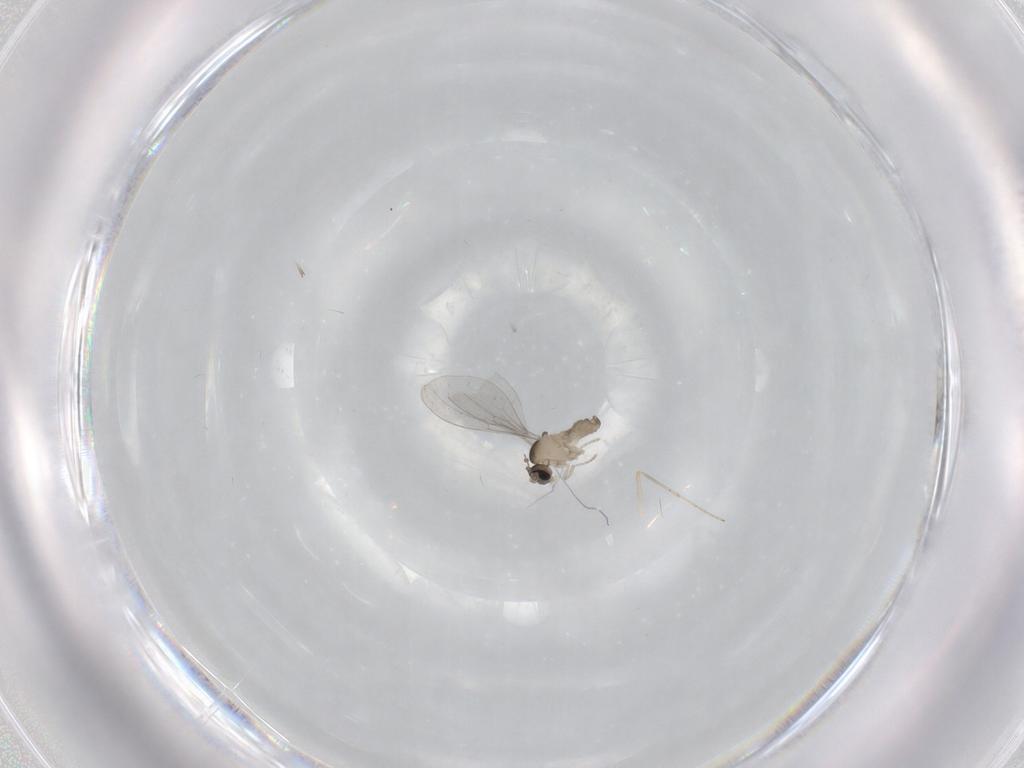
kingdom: Animalia
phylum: Arthropoda
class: Insecta
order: Diptera
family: Cecidomyiidae
